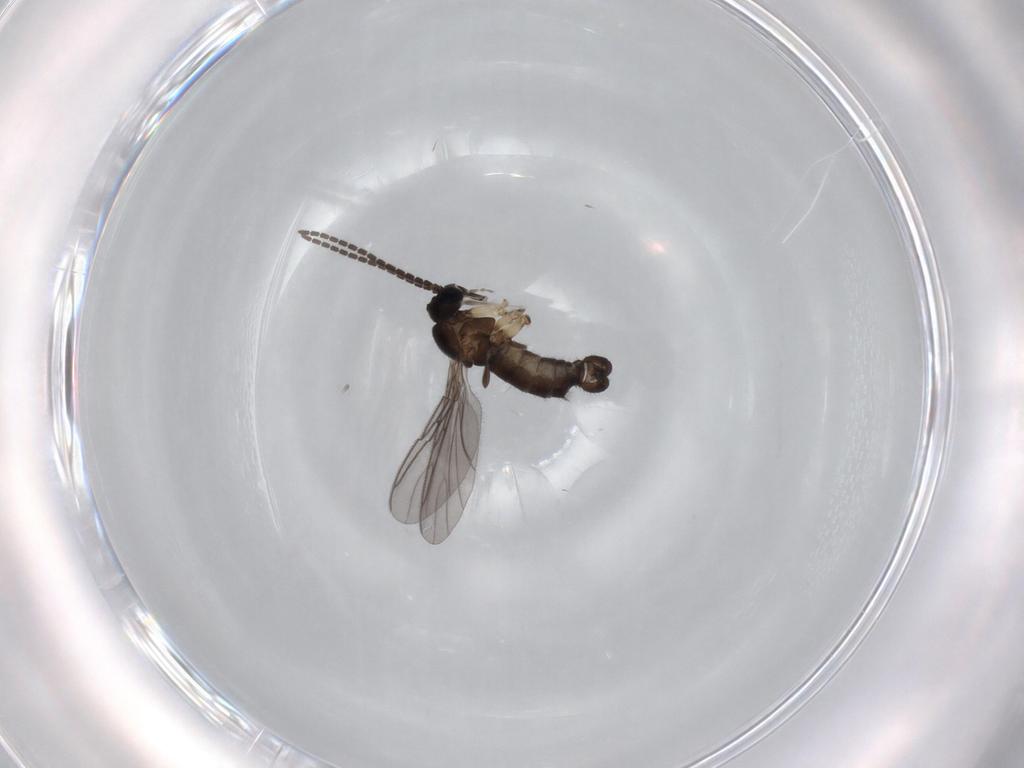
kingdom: Animalia
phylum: Arthropoda
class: Insecta
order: Diptera
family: Sciaridae
